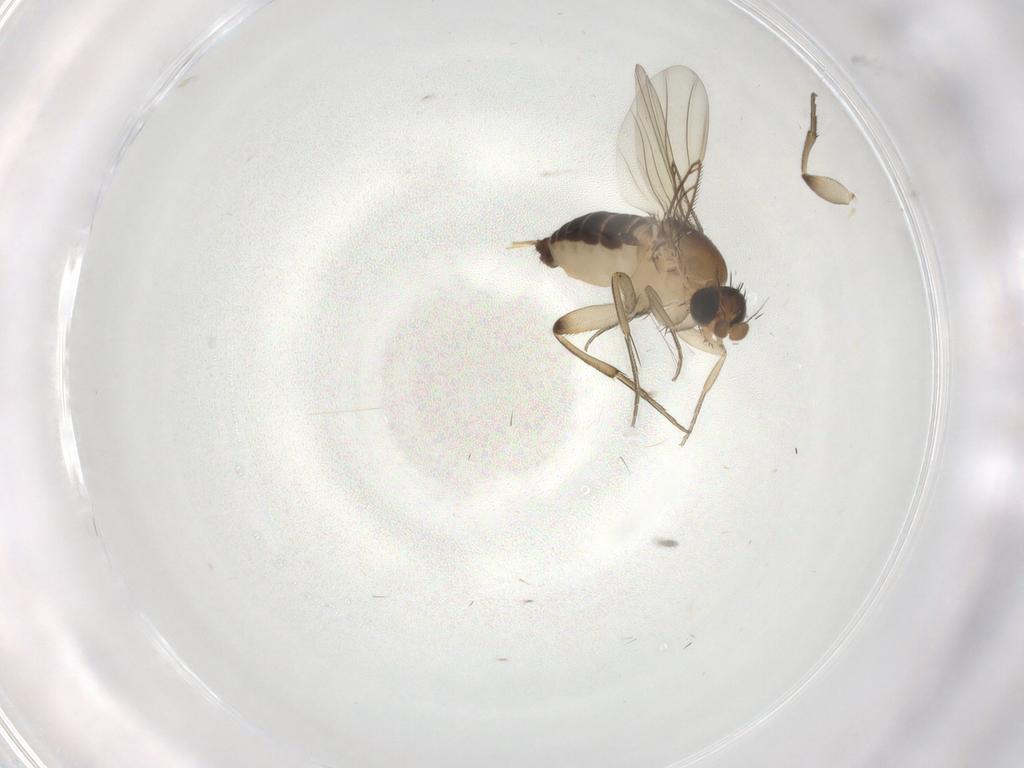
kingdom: Animalia
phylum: Arthropoda
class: Insecta
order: Diptera
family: Phoridae
